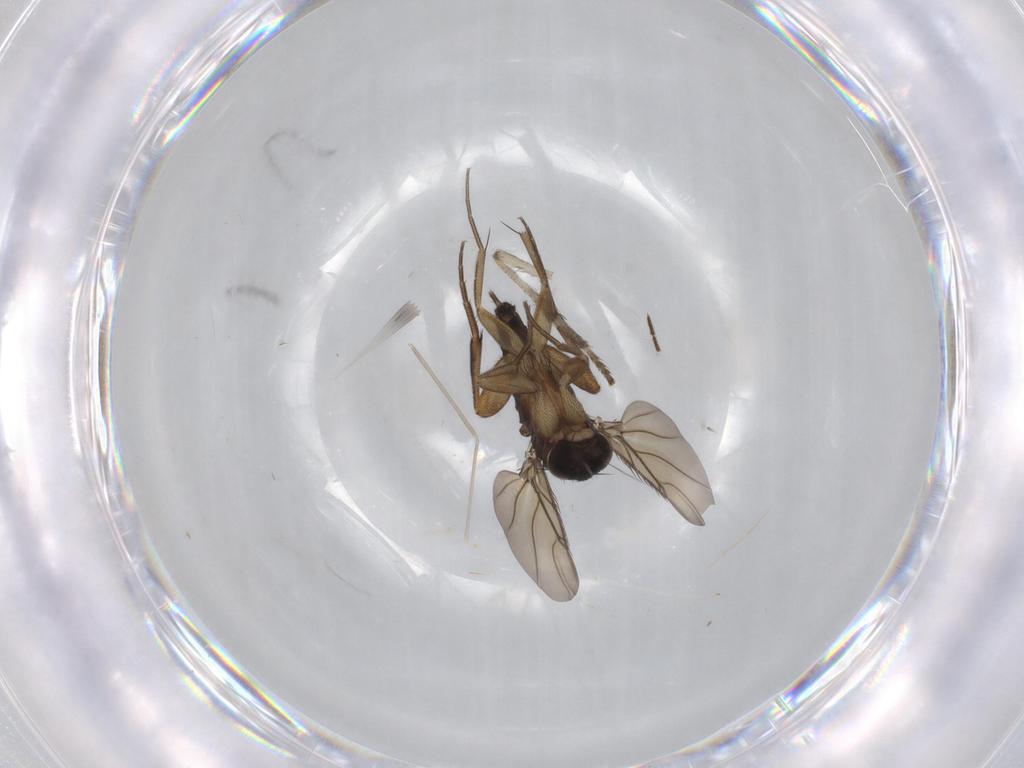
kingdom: Animalia
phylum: Arthropoda
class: Insecta
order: Diptera
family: Psychodidae
